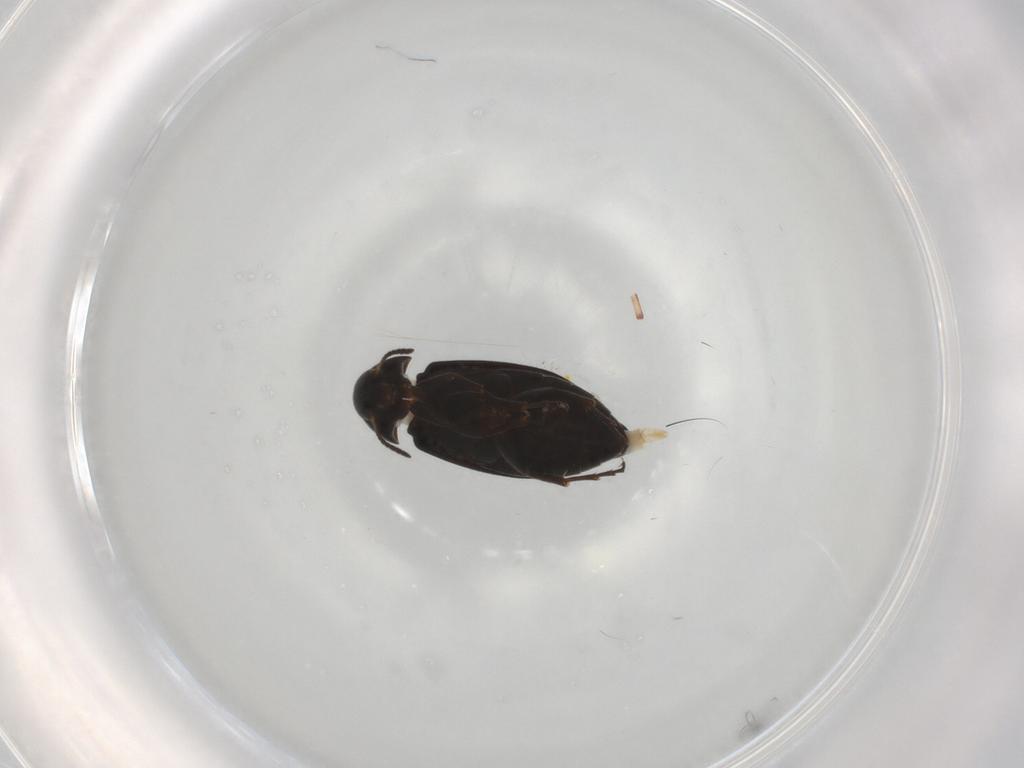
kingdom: Animalia
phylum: Arthropoda
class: Insecta
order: Coleoptera
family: Scraptiidae
